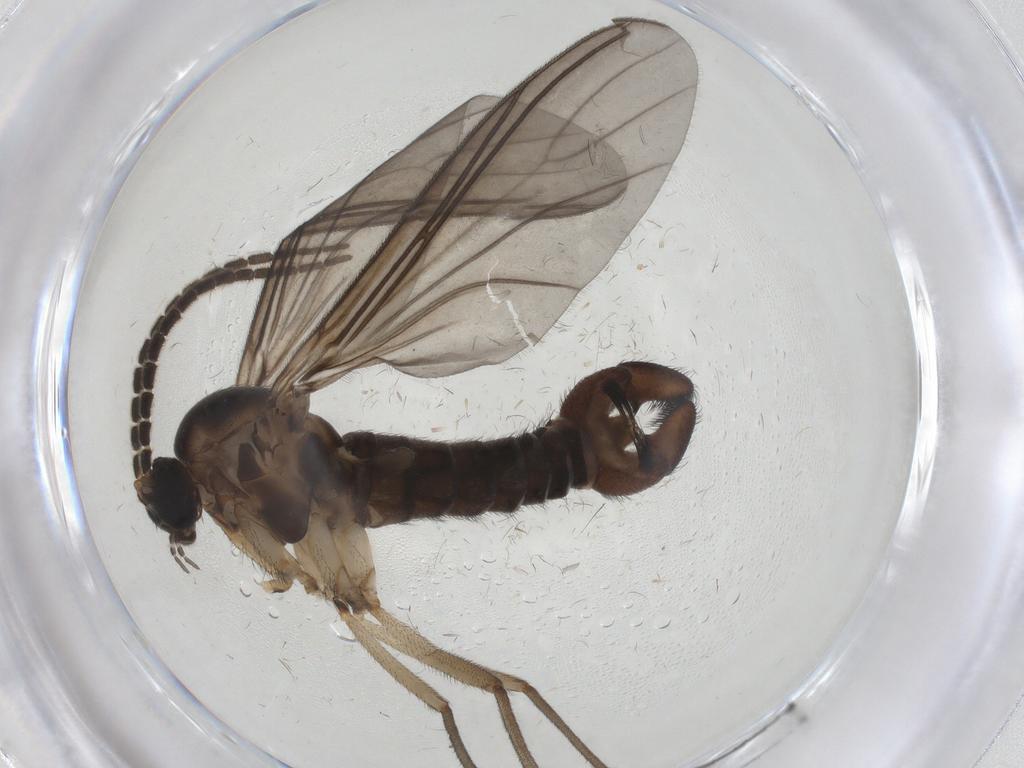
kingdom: Animalia
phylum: Arthropoda
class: Insecta
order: Diptera
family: Sciaridae
